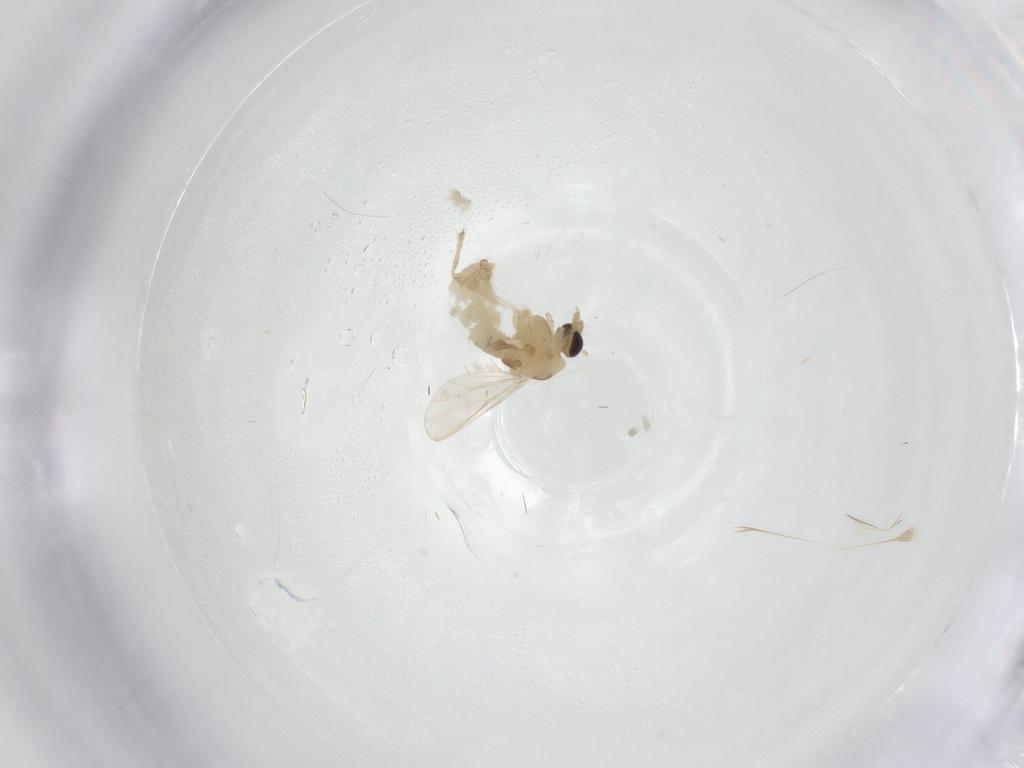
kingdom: Animalia
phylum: Arthropoda
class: Insecta
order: Diptera
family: Chironomidae
